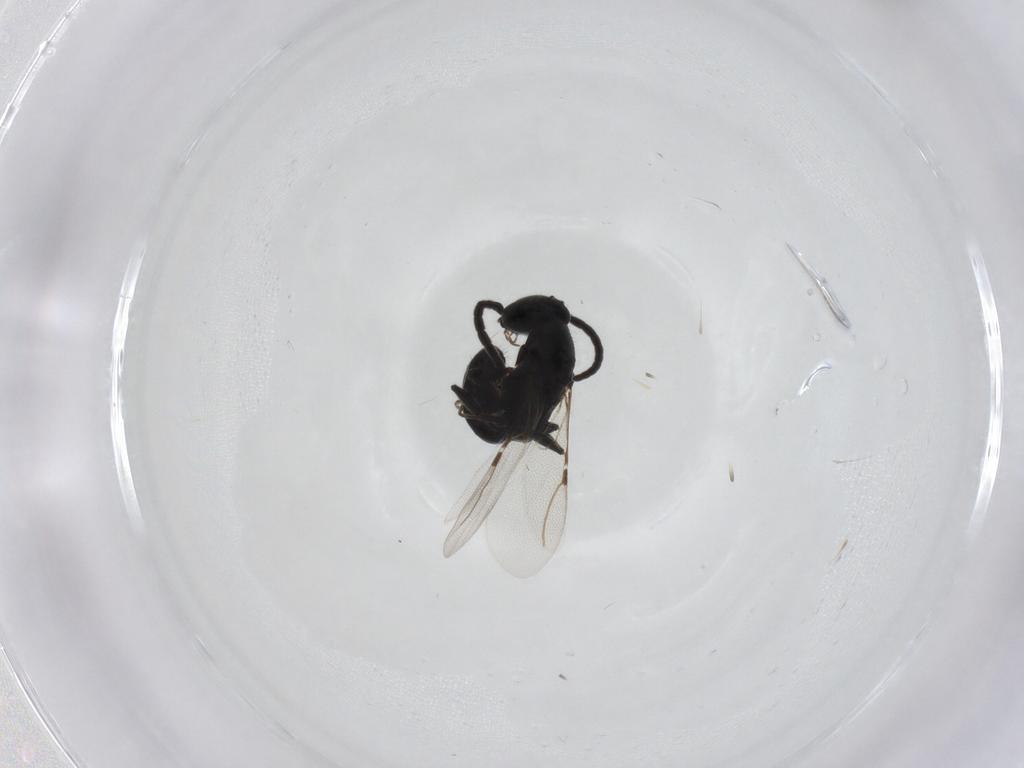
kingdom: Animalia
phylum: Arthropoda
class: Insecta
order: Hymenoptera
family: Bethylidae
